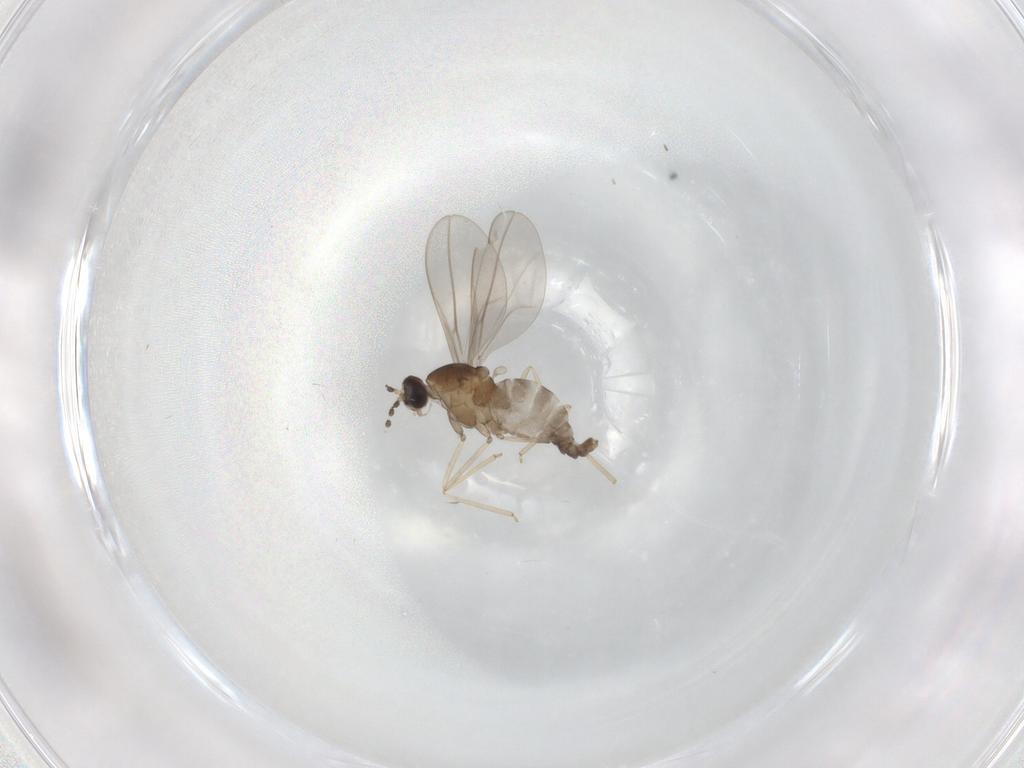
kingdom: Animalia
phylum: Arthropoda
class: Insecta
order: Diptera
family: Cecidomyiidae
